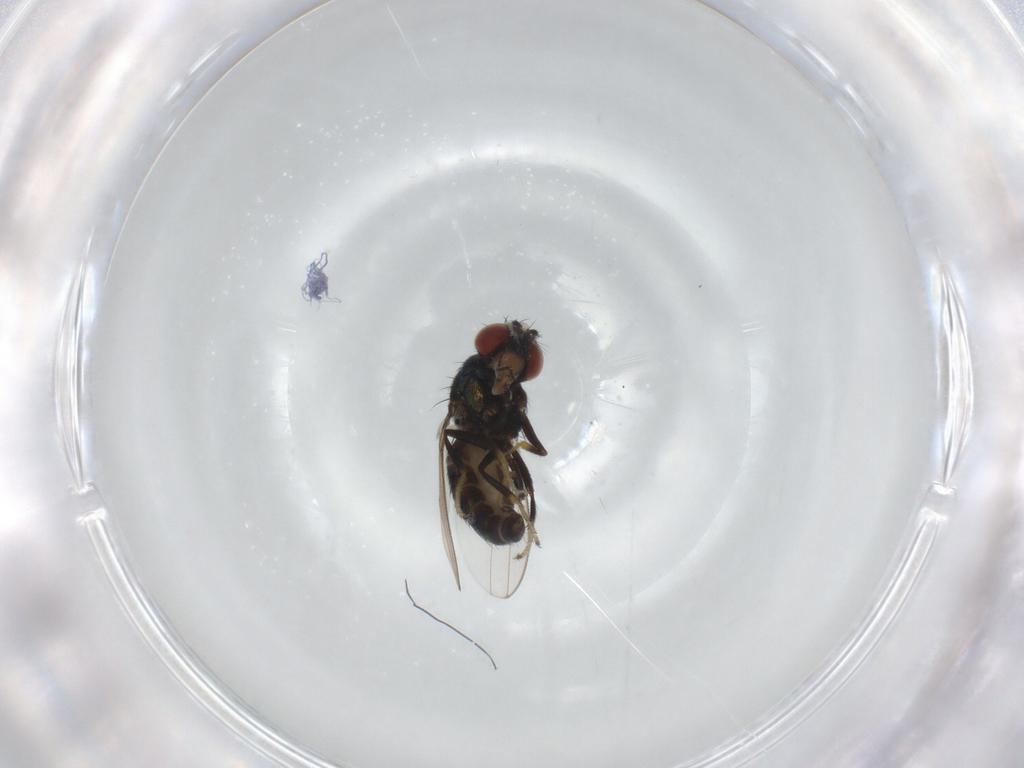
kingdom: Animalia
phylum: Arthropoda
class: Insecta
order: Diptera
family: Ephydridae
